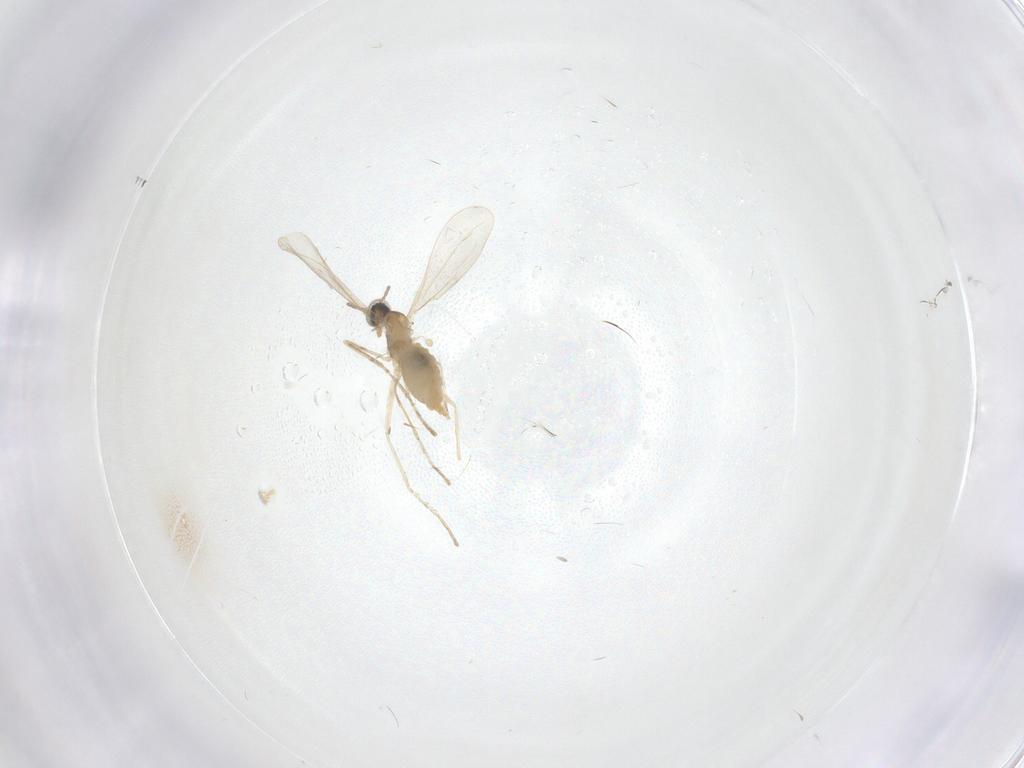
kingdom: Animalia
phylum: Arthropoda
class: Insecta
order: Diptera
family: Cecidomyiidae
